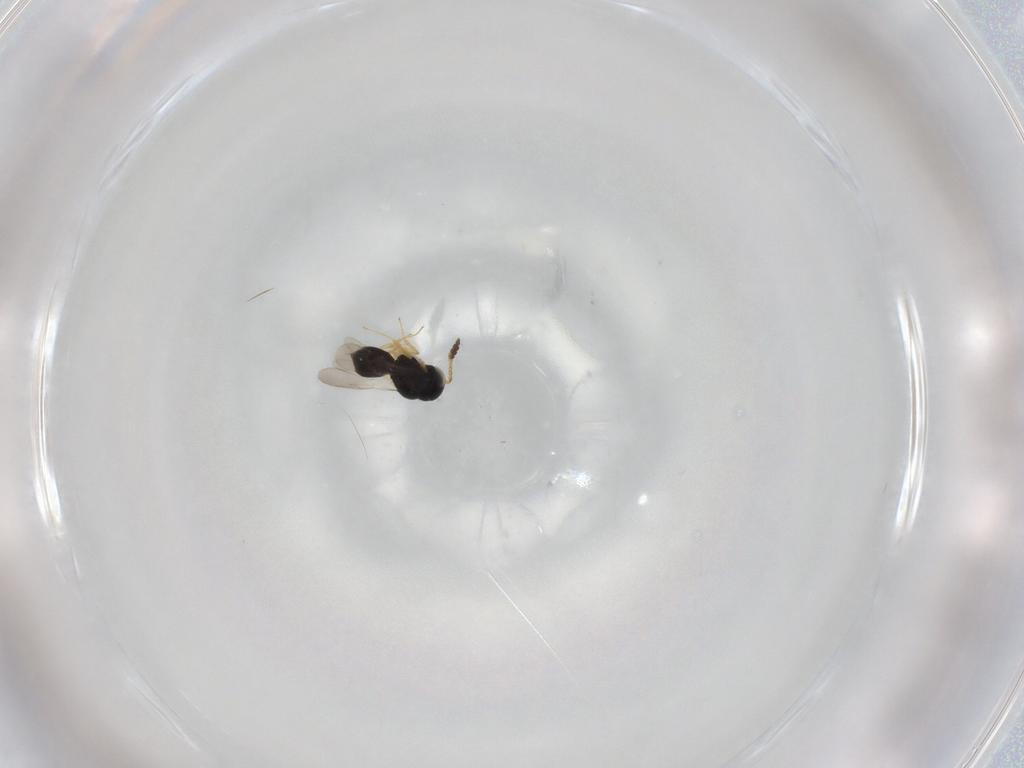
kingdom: Animalia
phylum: Arthropoda
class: Insecta
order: Hymenoptera
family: Scelionidae
